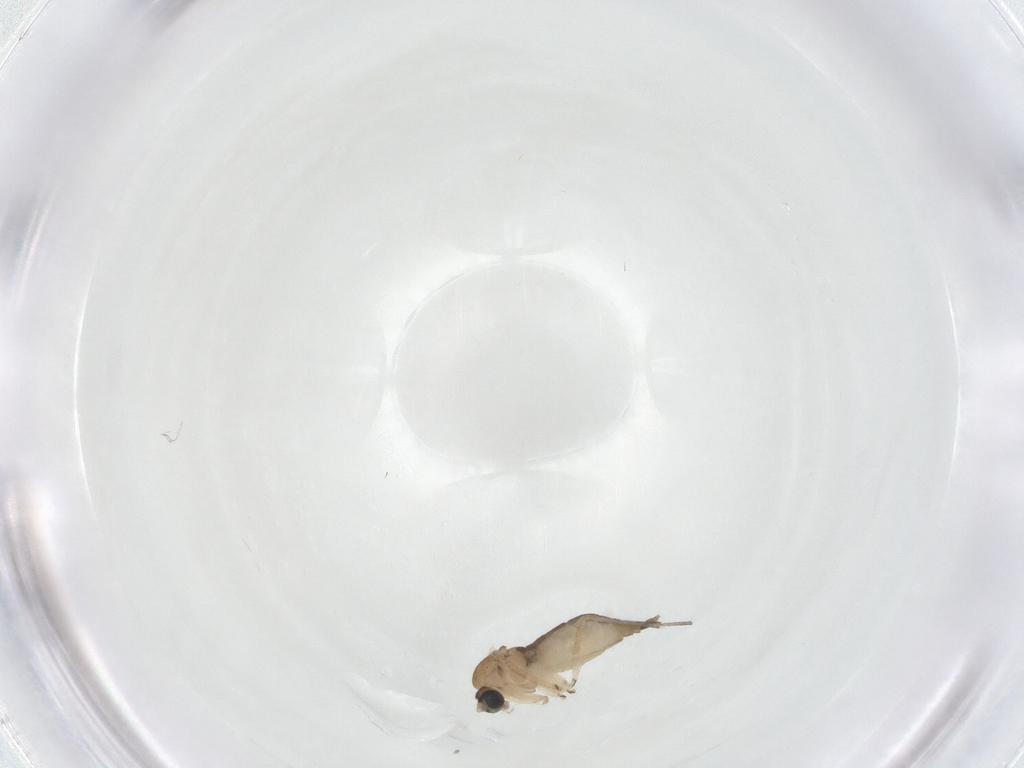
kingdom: Animalia
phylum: Arthropoda
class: Insecta
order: Diptera
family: Sciaridae
